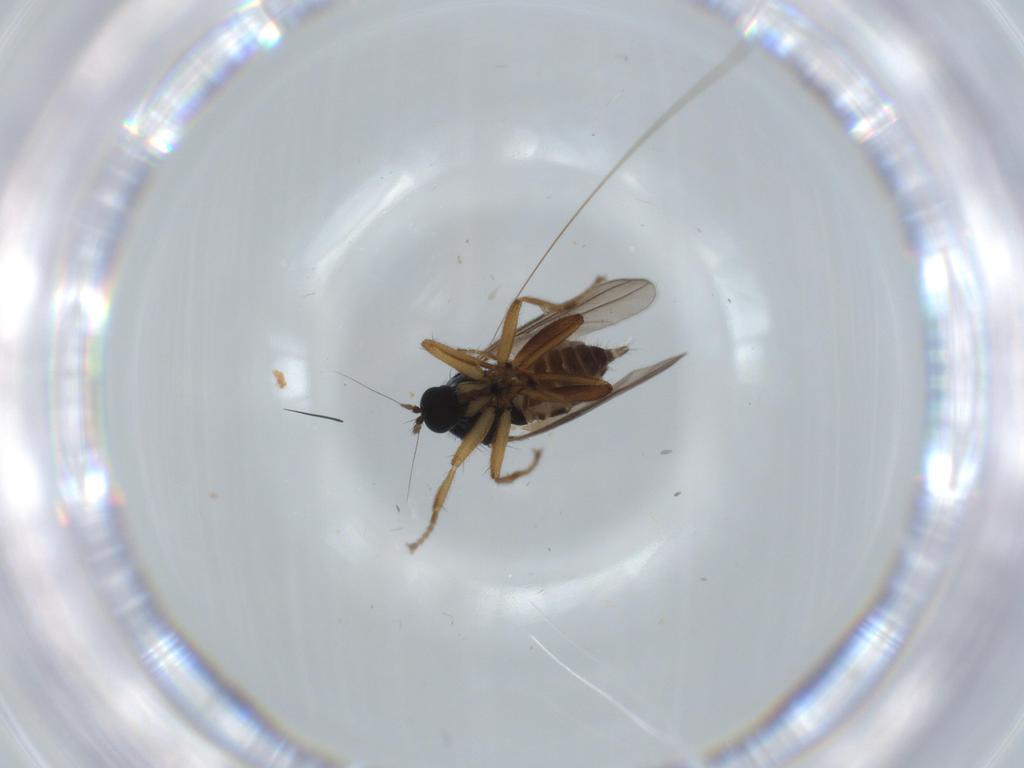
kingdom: Animalia
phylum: Arthropoda
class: Insecta
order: Diptera
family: Hybotidae
